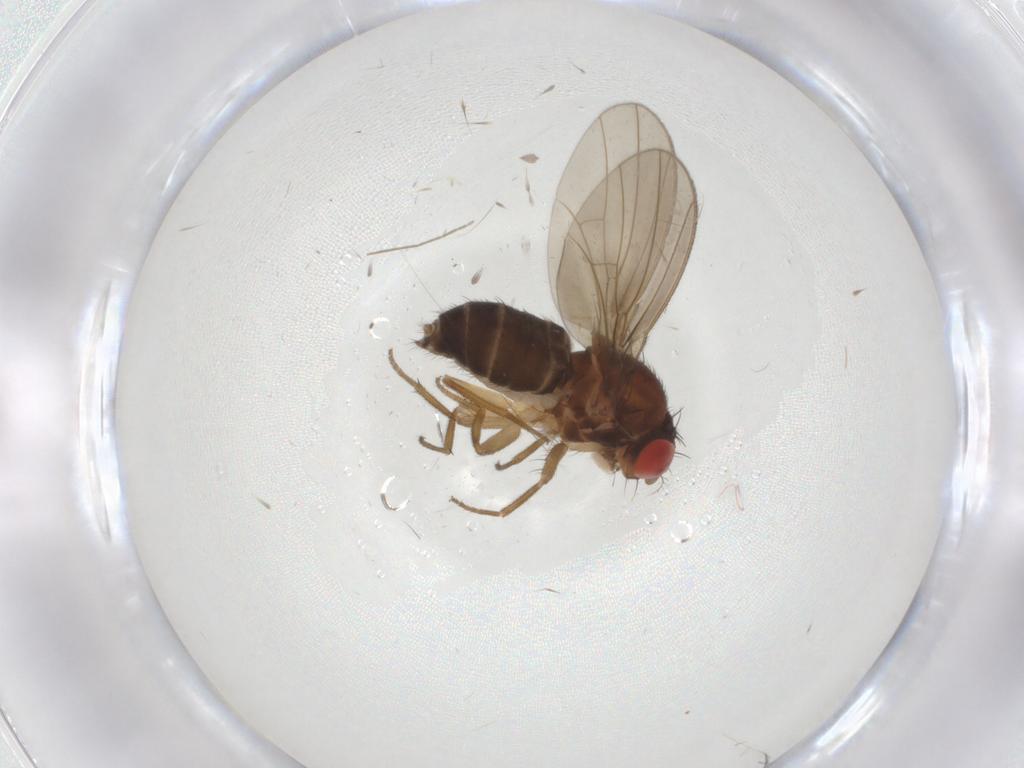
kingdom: Animalia
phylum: Arthropoda
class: Insecta
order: Diptera
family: Drosophilidae
